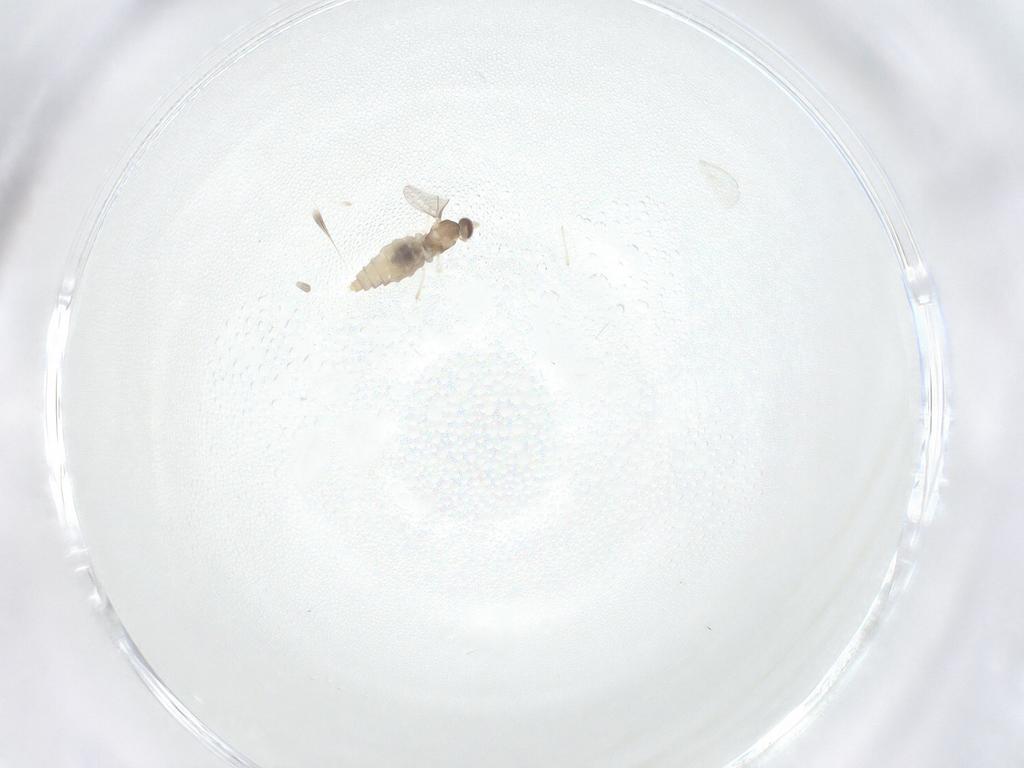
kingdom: Animalia
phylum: Arthropoda
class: Insecta
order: Diptera
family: Cecidomyiidae
